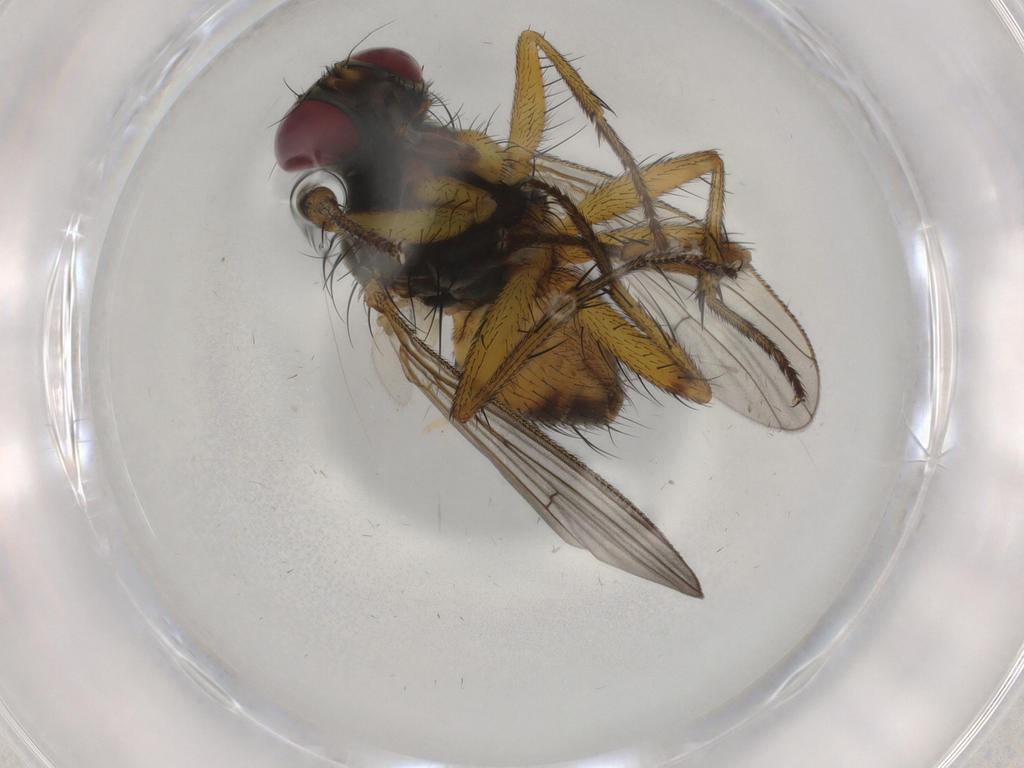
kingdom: Animalia
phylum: Arthropoda
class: Insecta
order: Diptera
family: Muscidae
